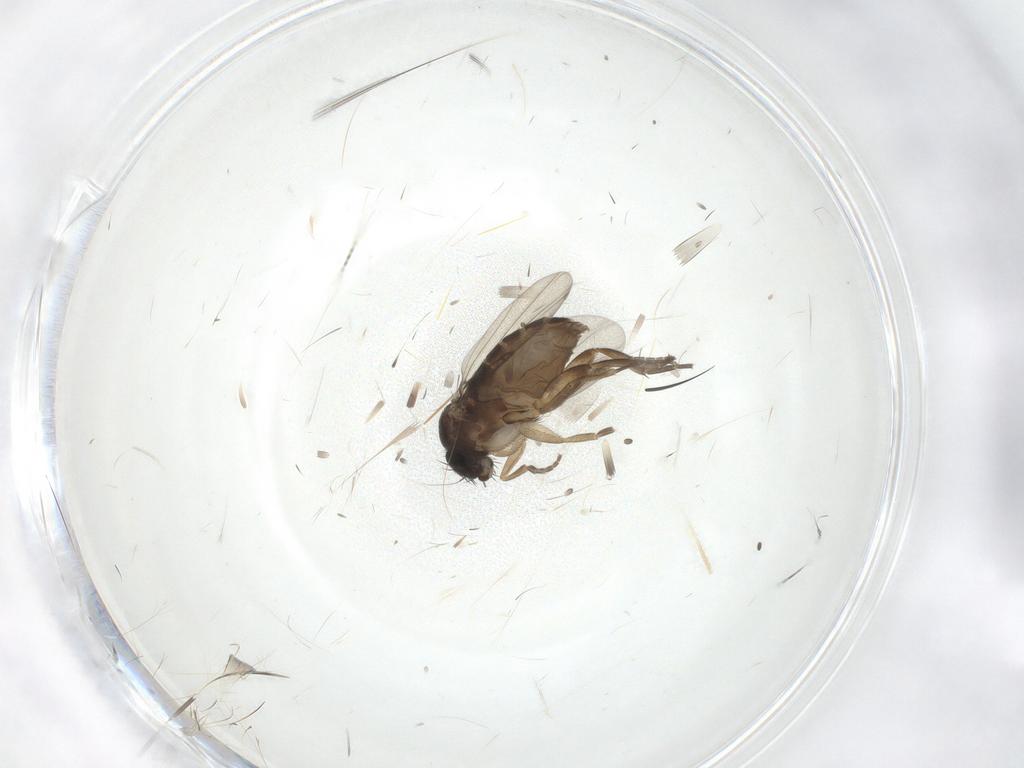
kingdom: Animalia
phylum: Arthropoda
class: Insecta
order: Diptera
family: Phoridae
